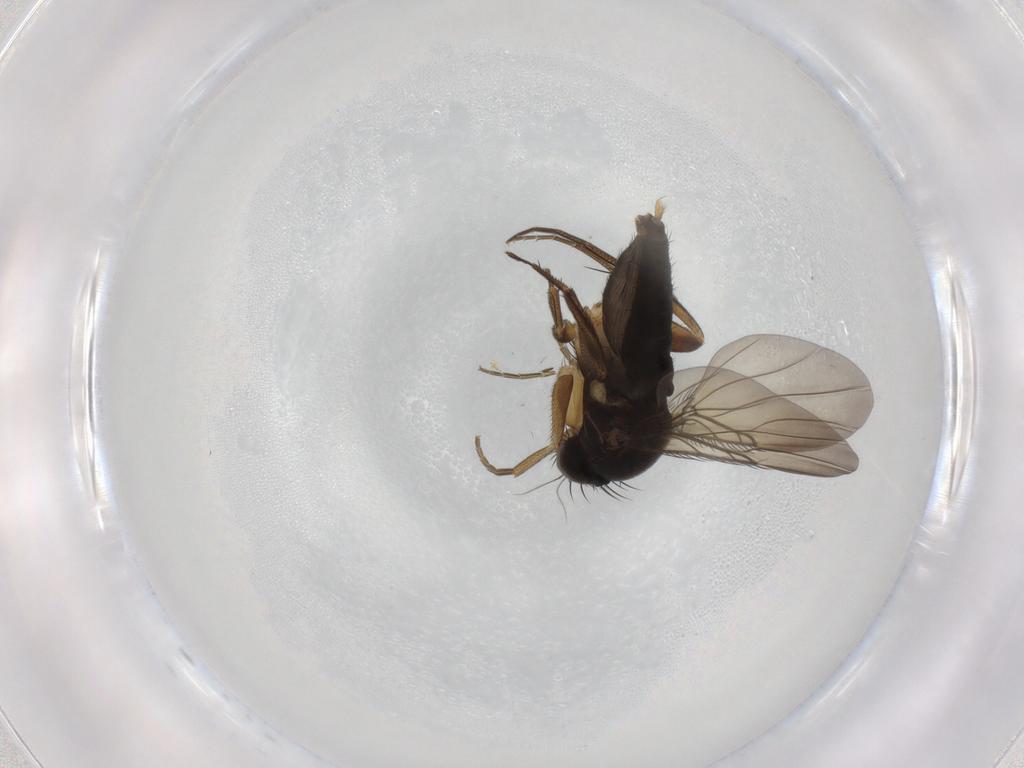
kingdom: Animalia
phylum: Arthropoda
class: Insecta
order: Diptera
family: Phoridae
